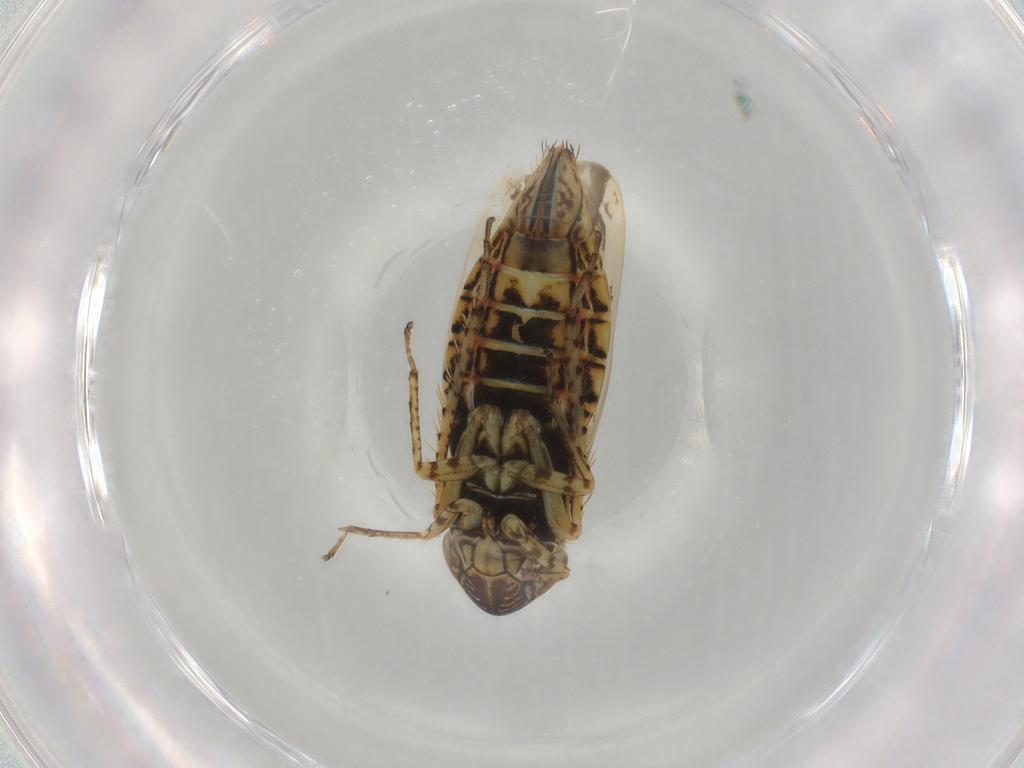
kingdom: Animalia
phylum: Arthropoda
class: Insecta
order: Hemiptera
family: Cicadellidae
